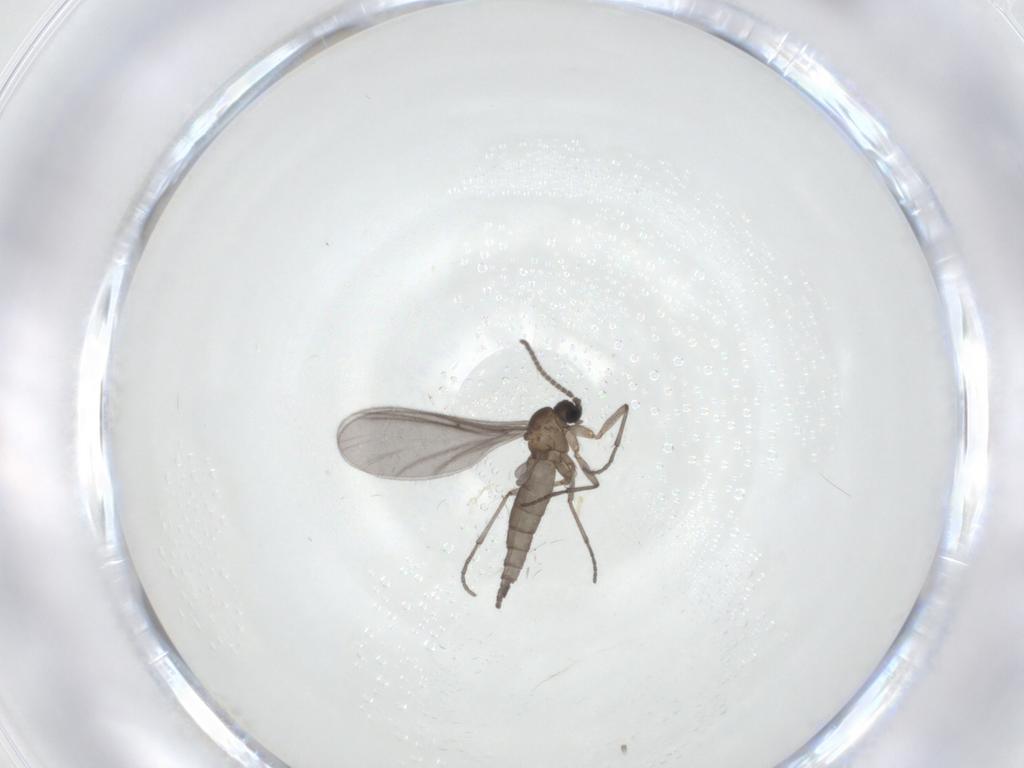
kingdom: Animalia
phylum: Arthropoda
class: Insecta
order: Diptera
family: Sciaridae
